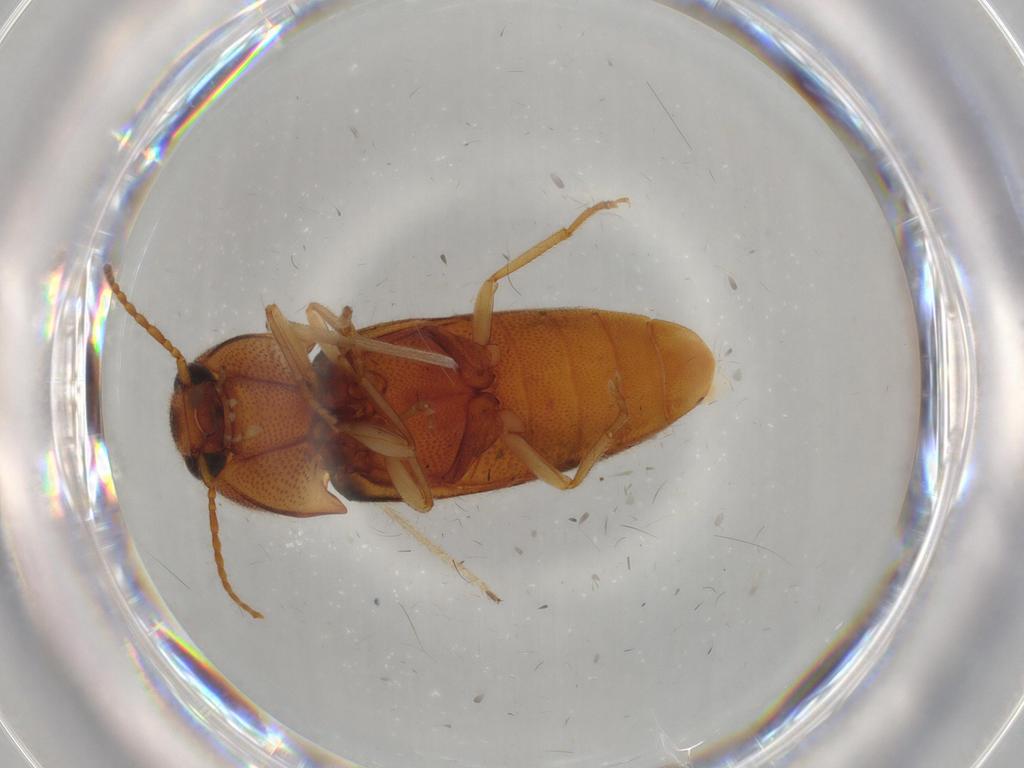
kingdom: Animalia
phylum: Arthropoda
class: Insecta
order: Coleoptera
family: Elateridae
